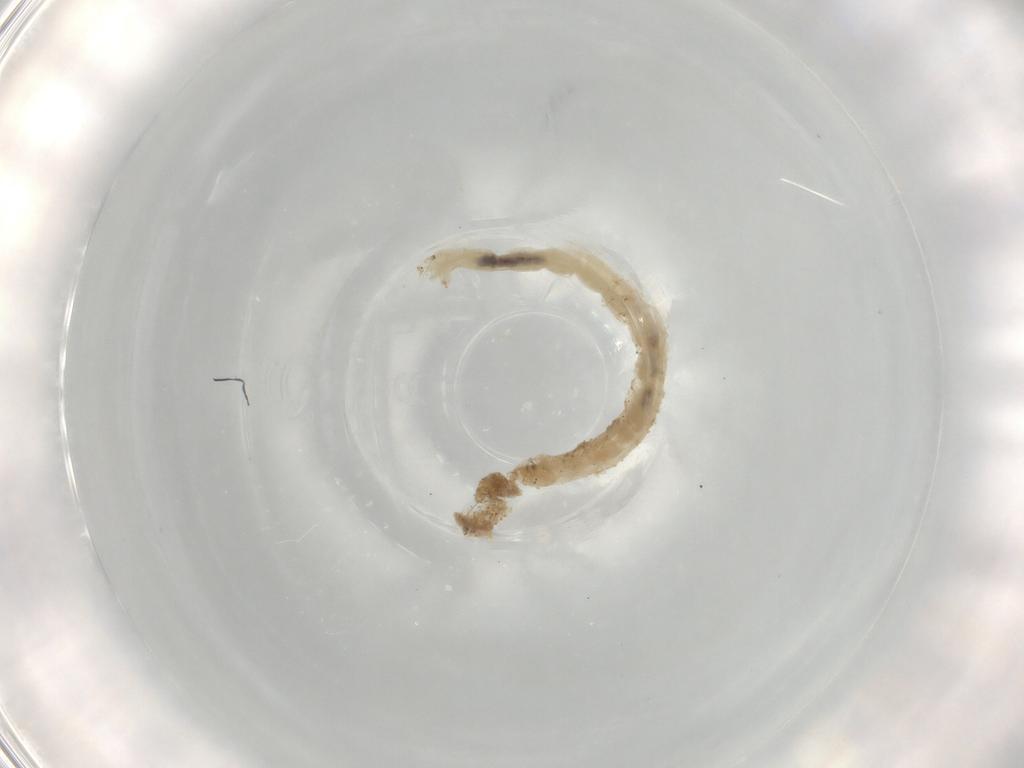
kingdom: Animalia
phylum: Arthropoda
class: Insecta
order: Diptera
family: Chironomidae
